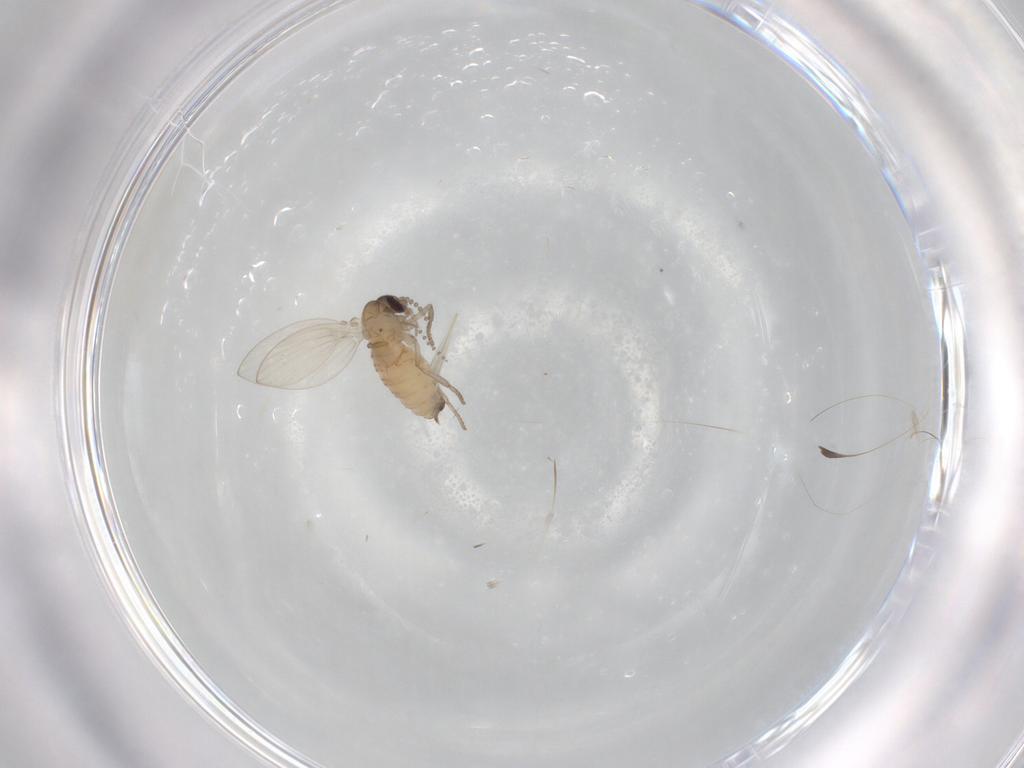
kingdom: Animalia
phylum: Arthropoda
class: Insecta
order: Diptera
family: Psychodidae
